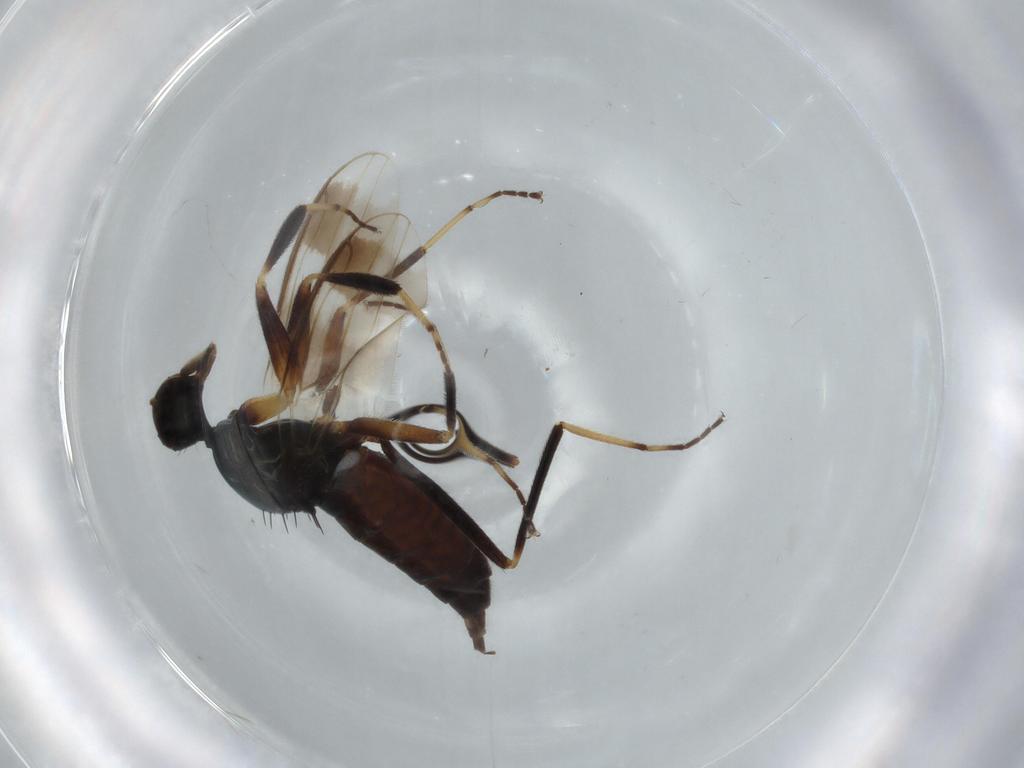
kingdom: Animalia
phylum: Arthropoda
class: Insecta
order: Diptera
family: Hybotidae
